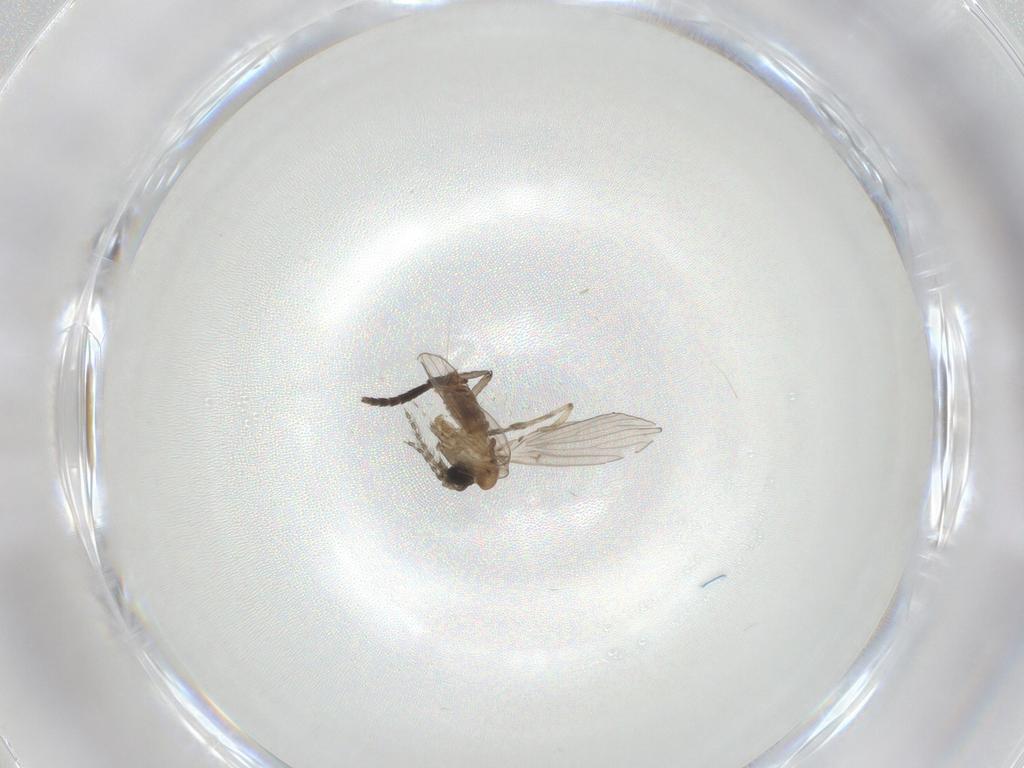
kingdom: Animalia
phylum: Arthropoda
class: Insecta
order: Diptera
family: Psychodidae
